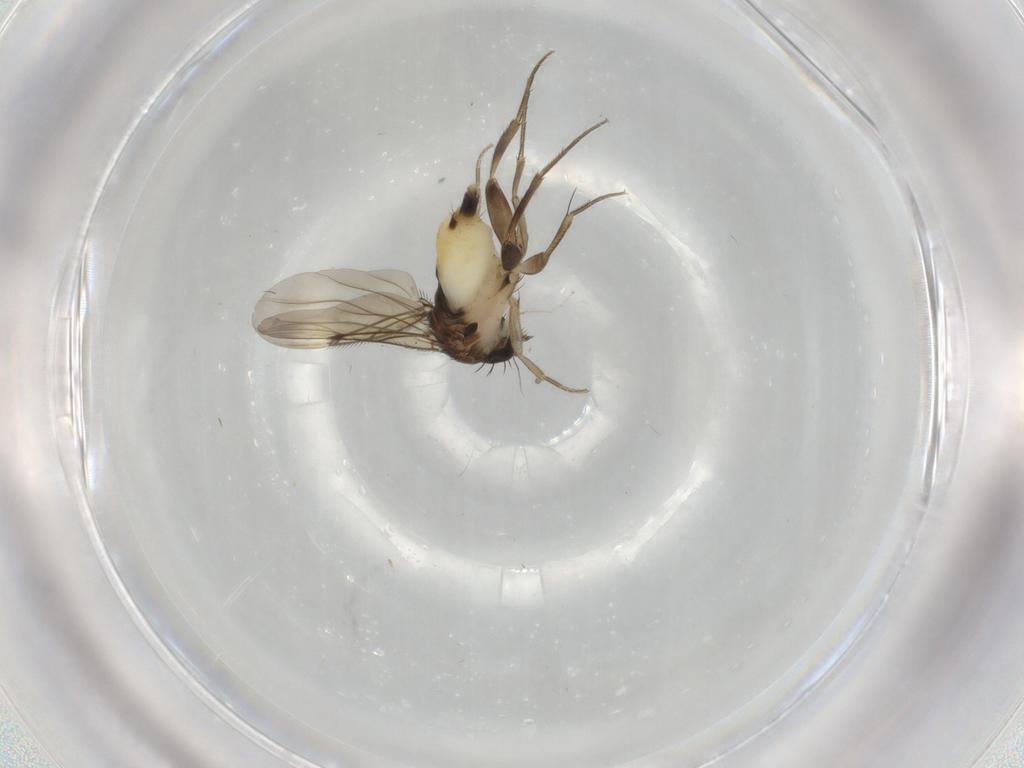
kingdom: Animalia
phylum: Arthropoda
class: Insecta
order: Diptera
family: Phoridae
